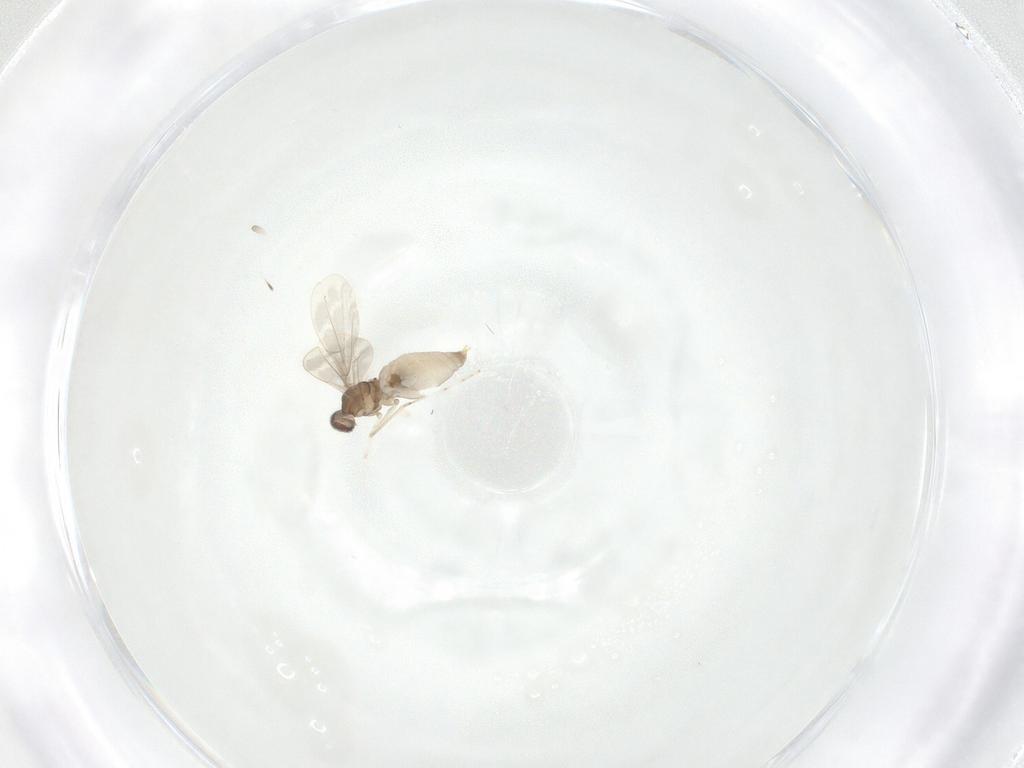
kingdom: Animalia
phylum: Arthropoda
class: Insecta
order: Diptera
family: Cecidomyiidae
